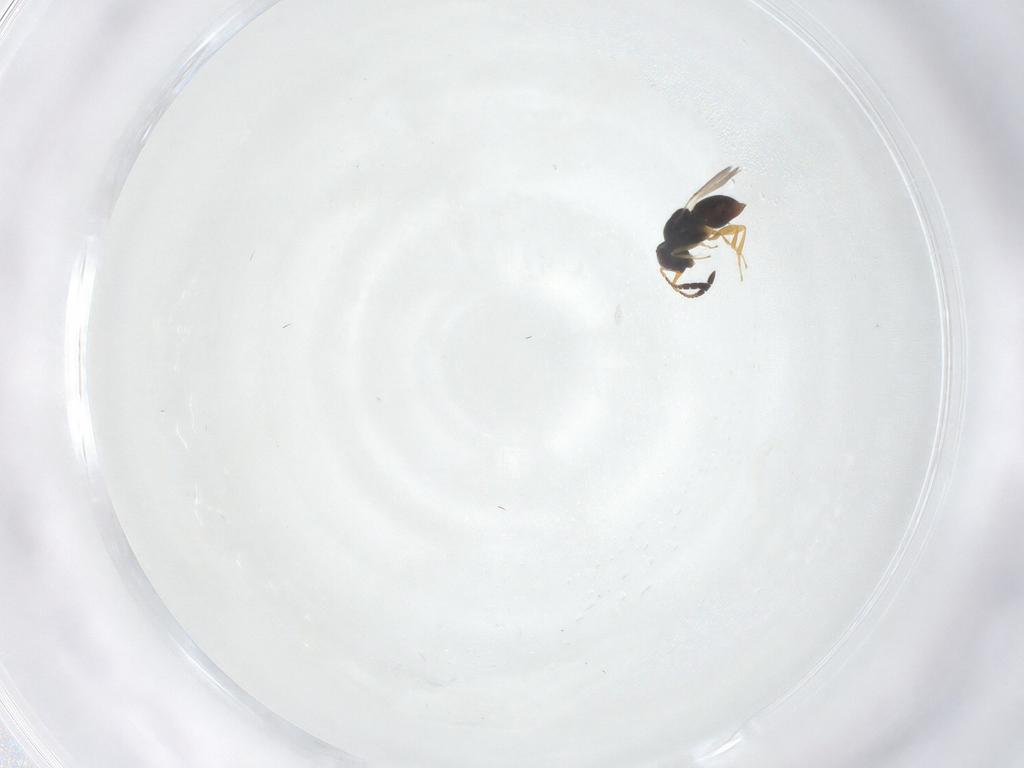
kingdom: Animalia
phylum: Arthropoda
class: Insecta
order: Hymenoptera
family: Ceraphronidae
